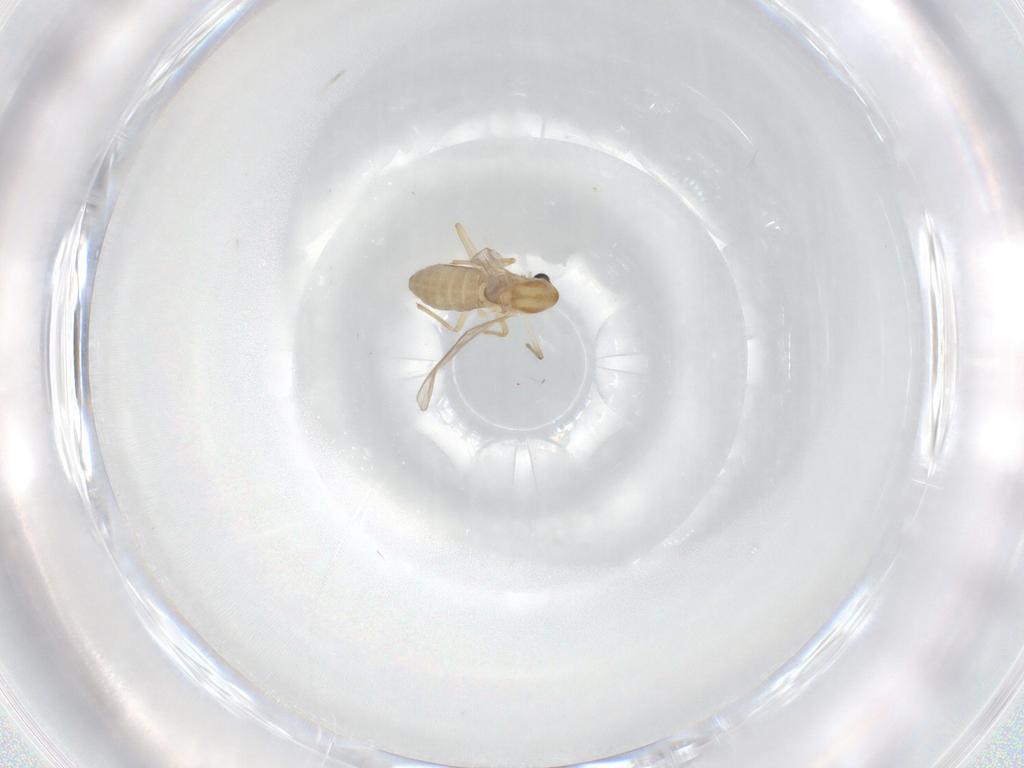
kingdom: Animalia
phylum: Arthropoda
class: Insecta
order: Diptera
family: Chironomidae
